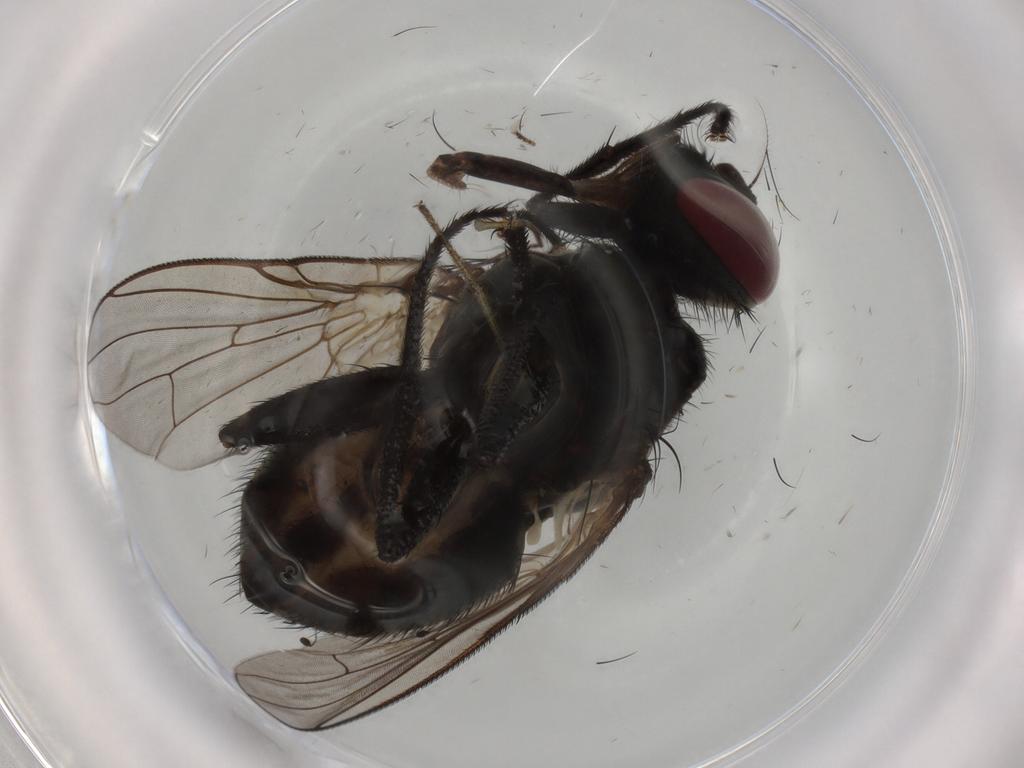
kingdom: Animalia
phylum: Arthropoda
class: Insecta
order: Diptera
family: Muscidae
